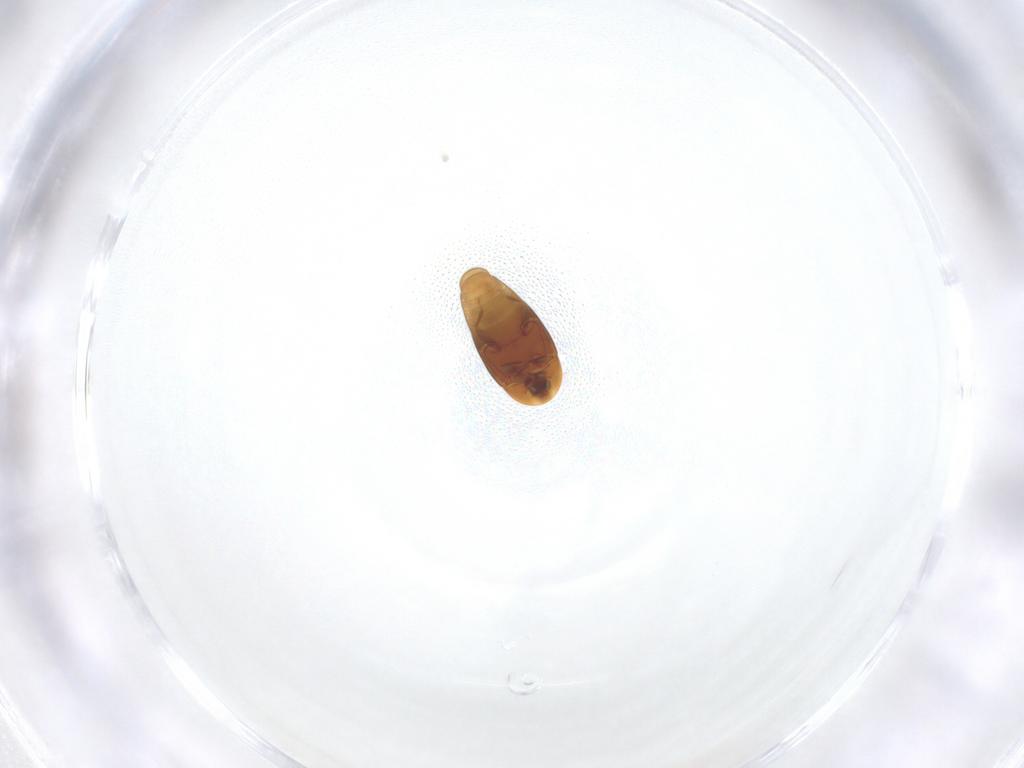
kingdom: Animalia
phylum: Arthropoda
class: Insecta
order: Coleoptera
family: Corylophidae
